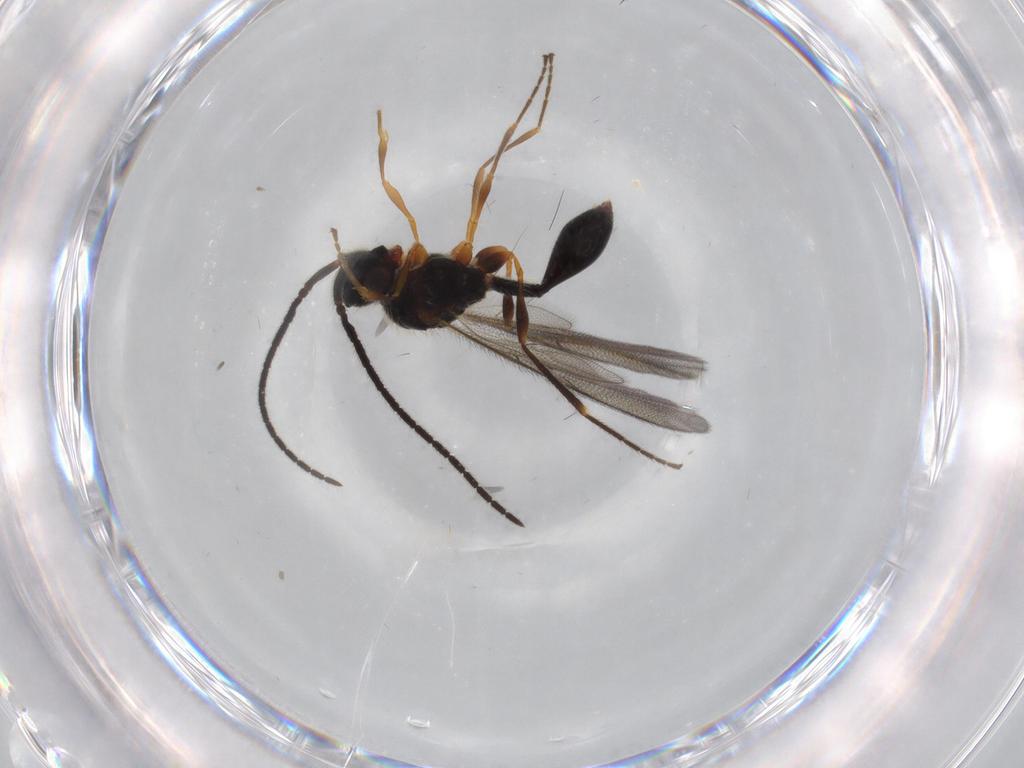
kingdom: Animalia
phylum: Arthropoda
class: Insecta
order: Hymenoptera
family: Diapriidae
